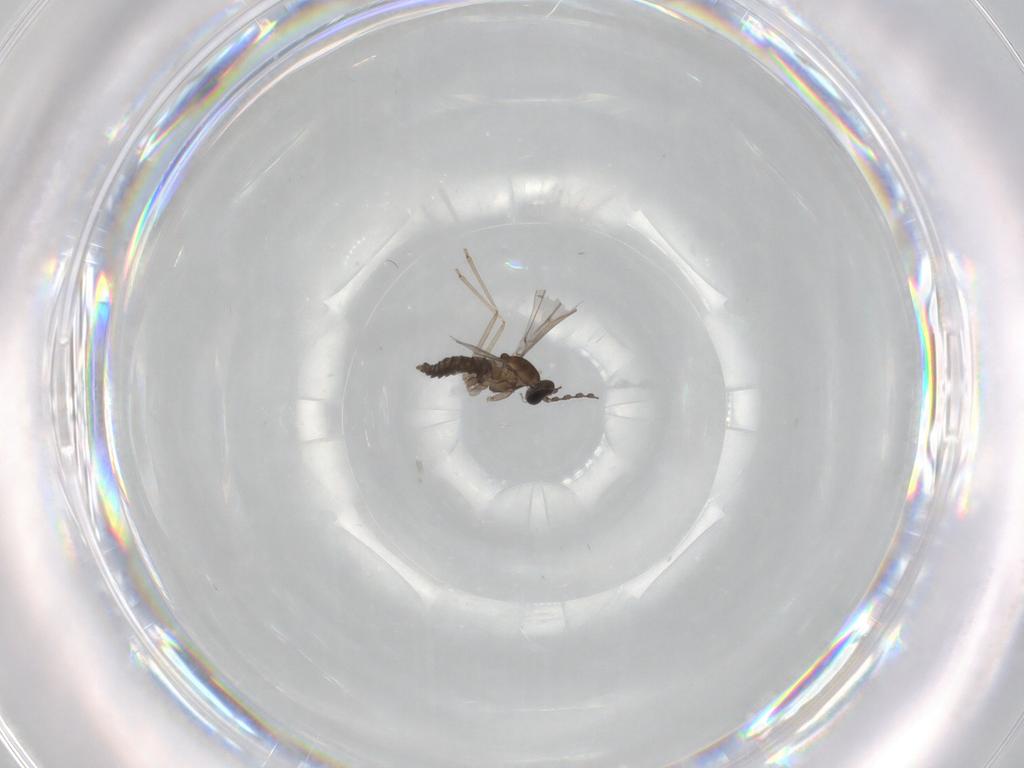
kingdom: Animalia
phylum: Arthropoda
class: Insecta
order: Diptera
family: Cecidomyiidae
